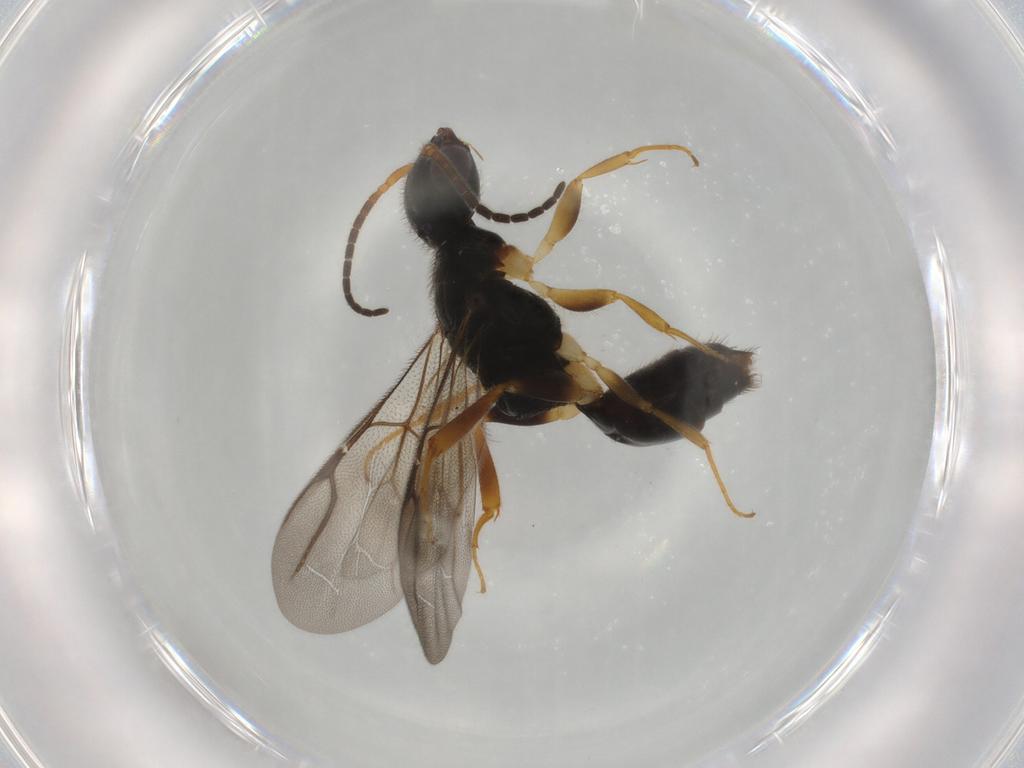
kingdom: Animalia
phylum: Arthropoda
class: Insecta
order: Hymenoptera
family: Bethylidae
